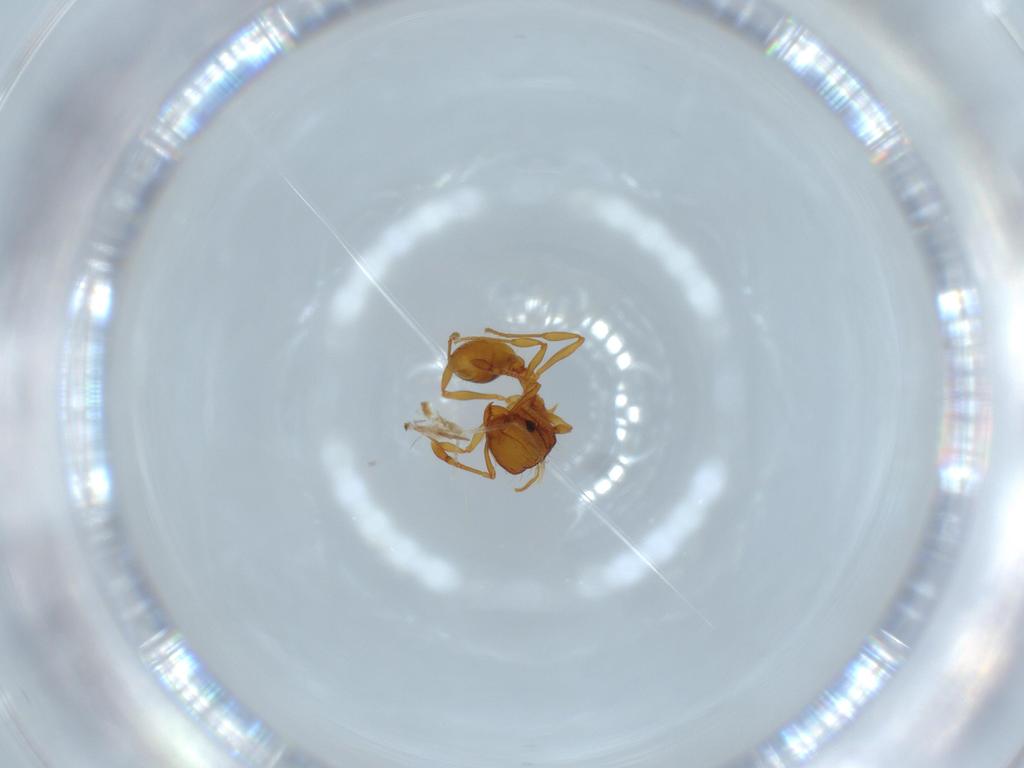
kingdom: Animalia
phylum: Arthropoda
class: Insecta
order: Hymenoptera
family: Formicidae
